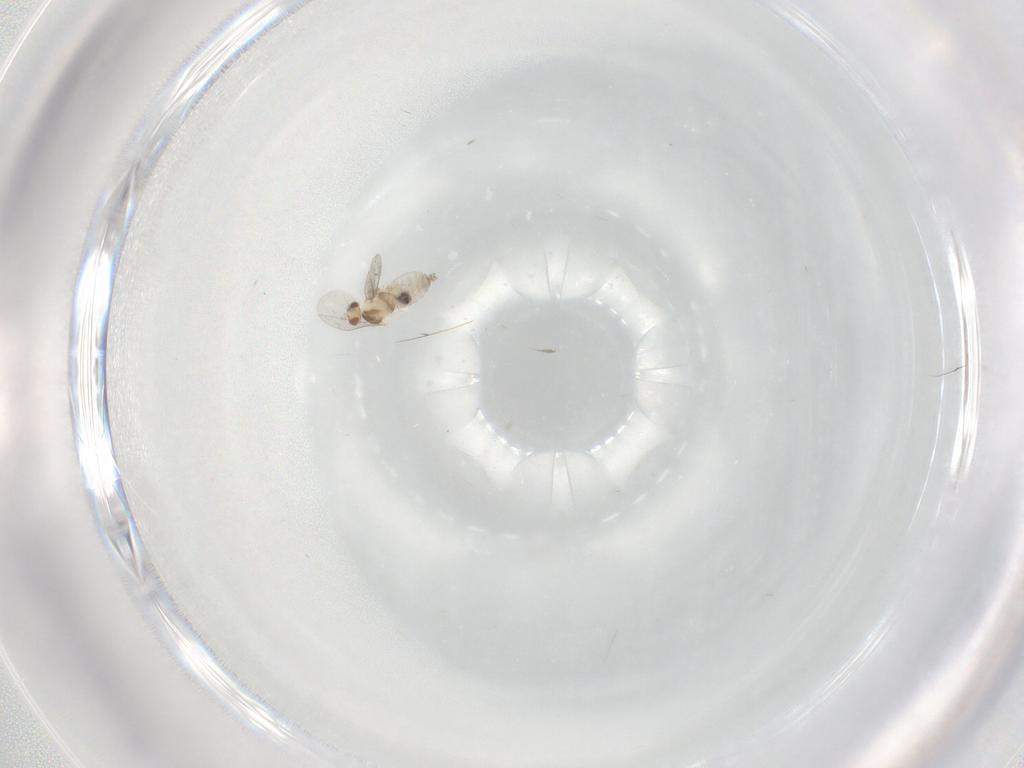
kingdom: Animalia
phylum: Arthropoda
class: Insecta
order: Diptera
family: Cecidomyiidae
